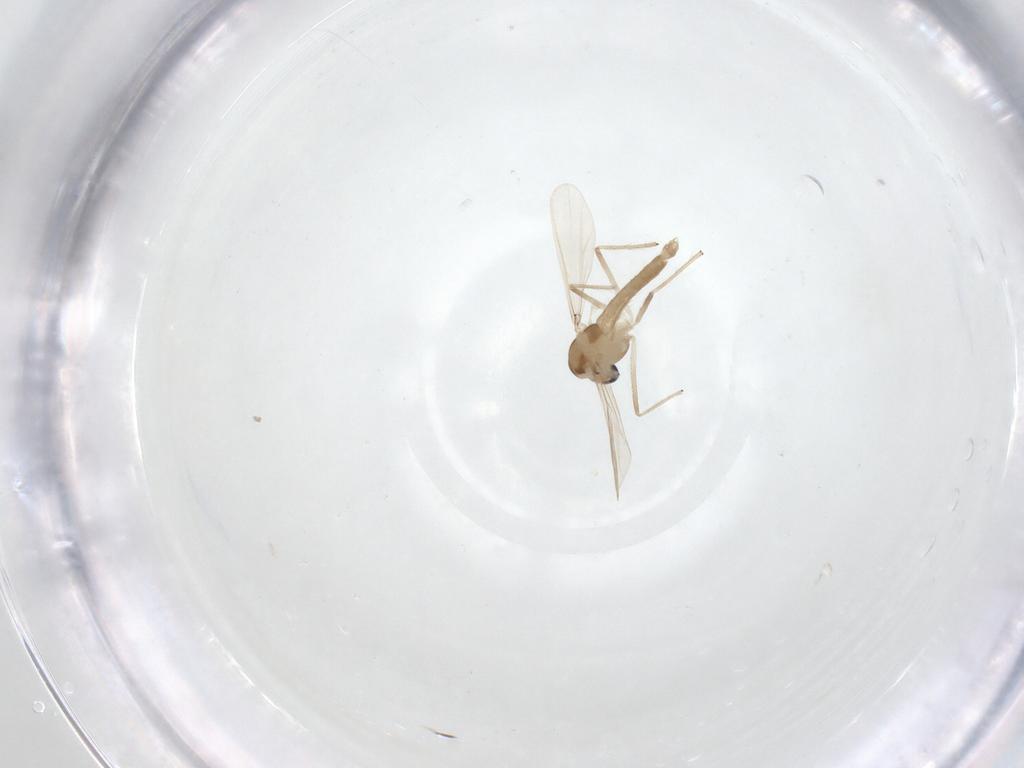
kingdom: Animalia
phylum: Arthropoda
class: Insecta
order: Diptera
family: Chironomidae
